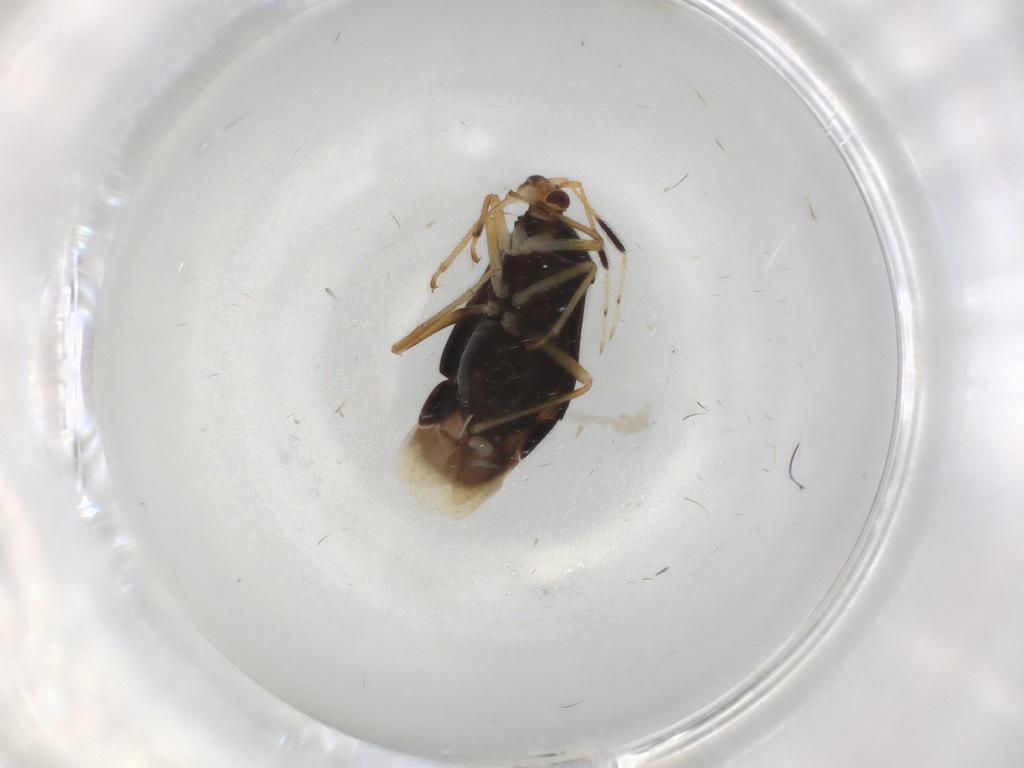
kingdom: Animalia
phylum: Arthropoda
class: Insecta
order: Hemiptera
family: Miridae
